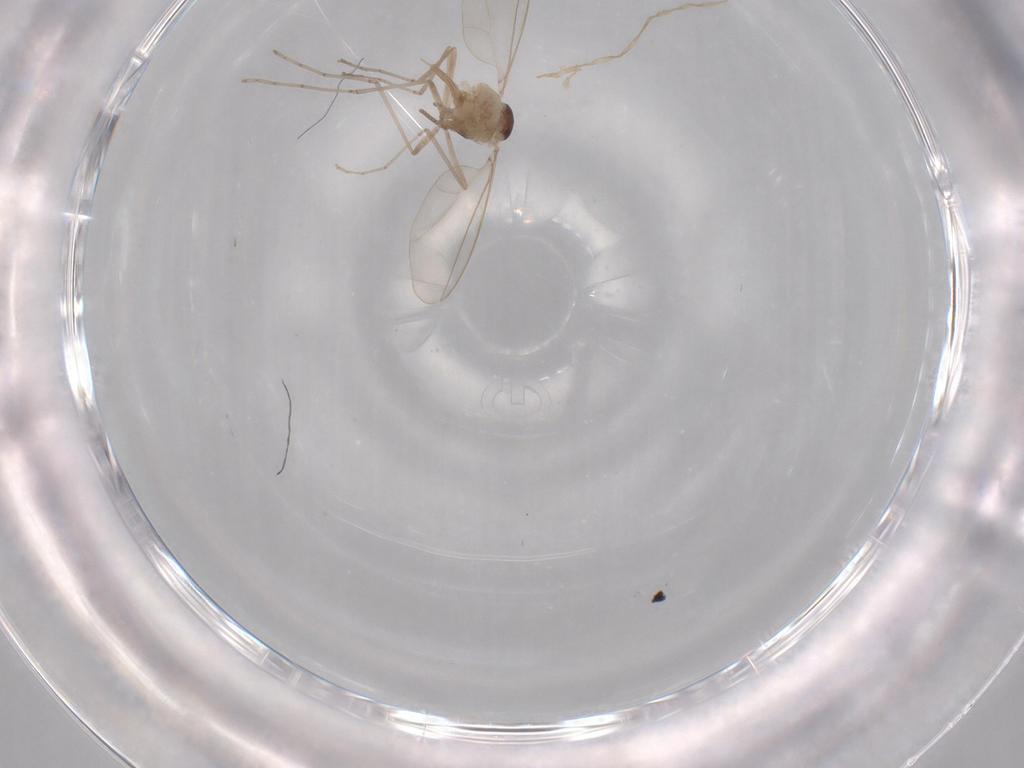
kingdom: Animalia
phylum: Arthropoda
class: Insecta
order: Diptera
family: Cecidomyiidae
